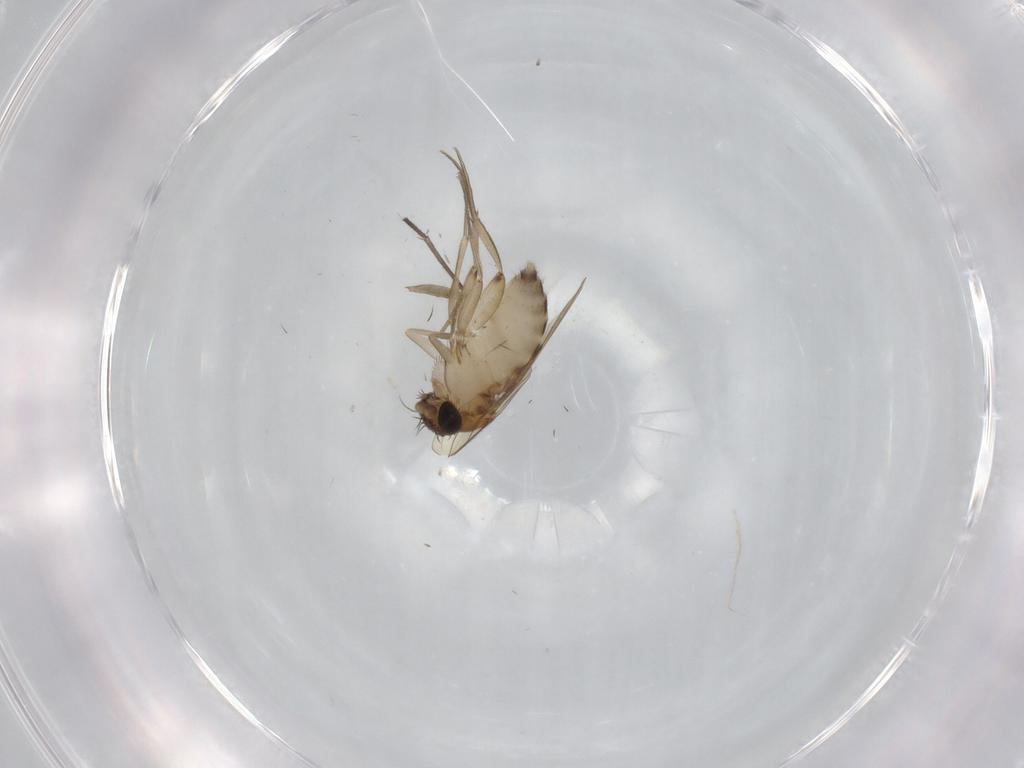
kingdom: Animalia
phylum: Arthropoda
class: Insecta
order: Diptera
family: Phoridae
